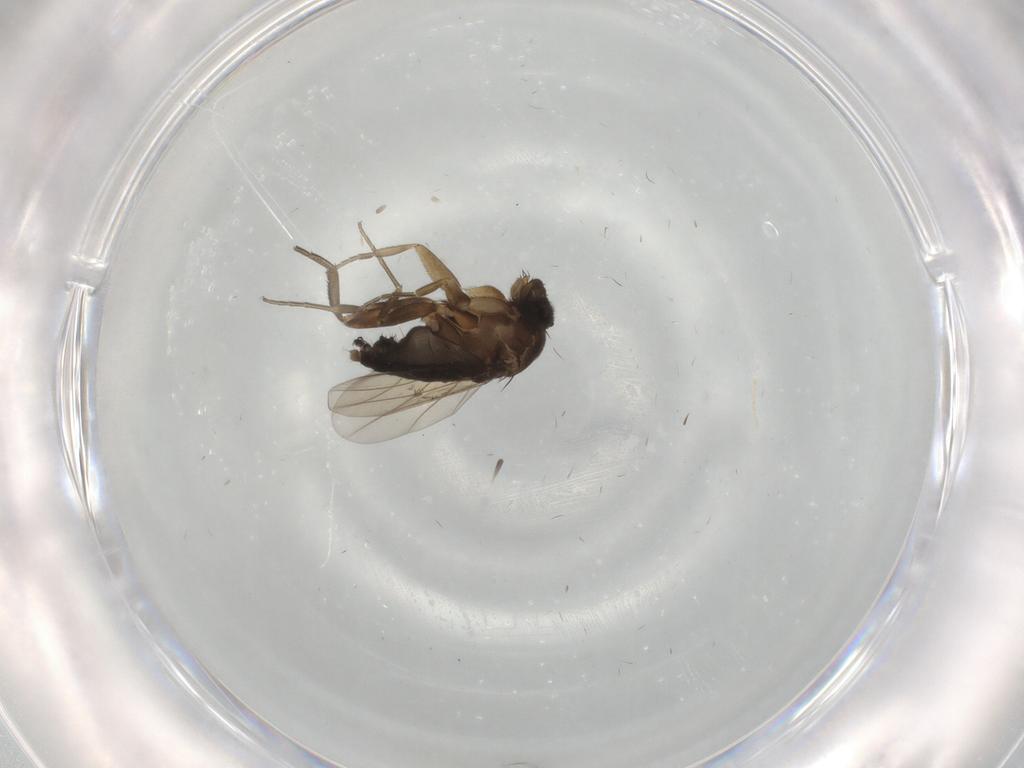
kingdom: Animalia
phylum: Arthropoda
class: Insecta
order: Diptera
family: Phoridae
